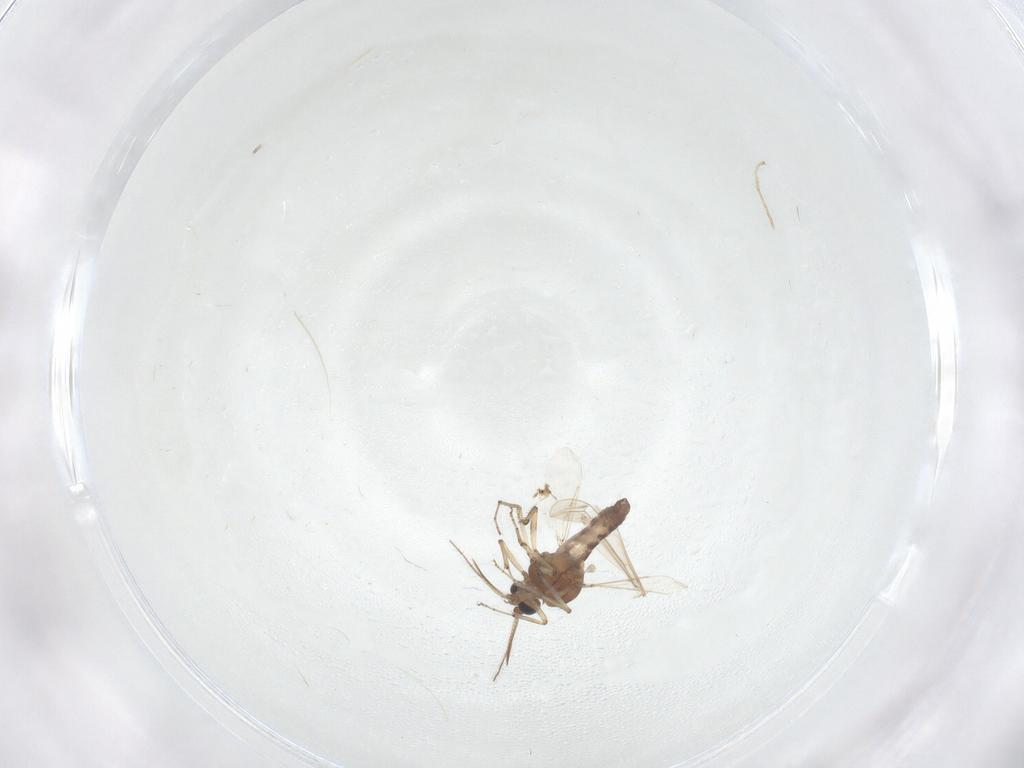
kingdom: Animalia
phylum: Arthropoda
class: Insecta
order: Diptera
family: Ceratopogonidae
